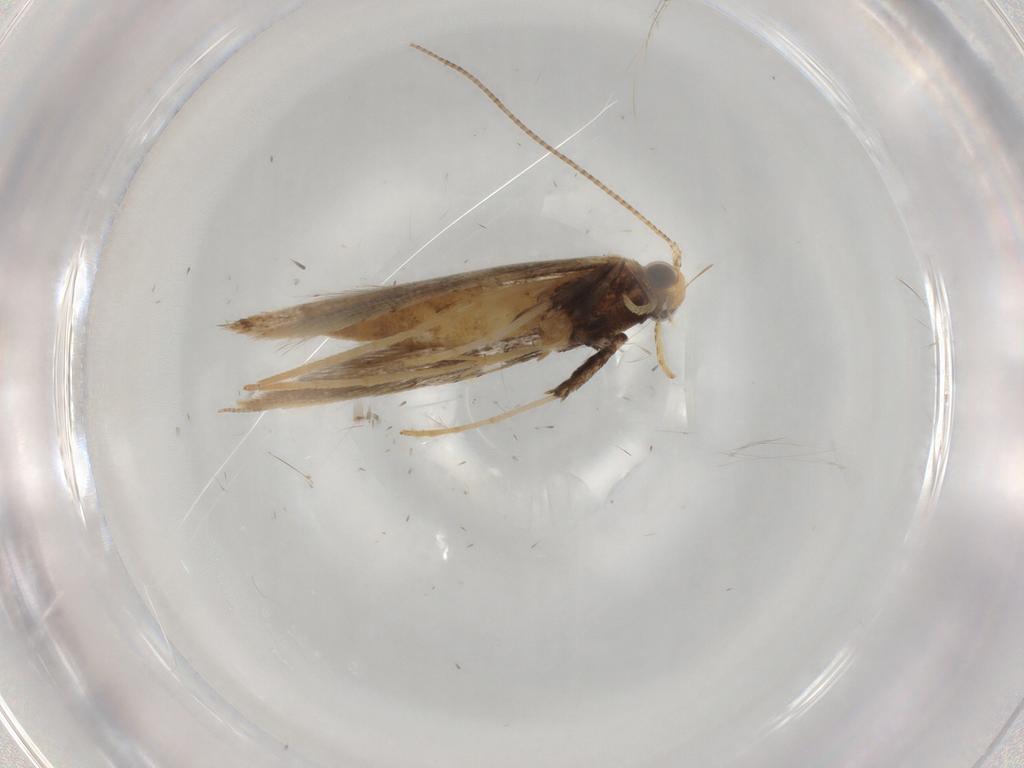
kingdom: Animalia
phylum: Arthropoda
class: Insecta
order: Lepidoptera
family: Gracillariidae
